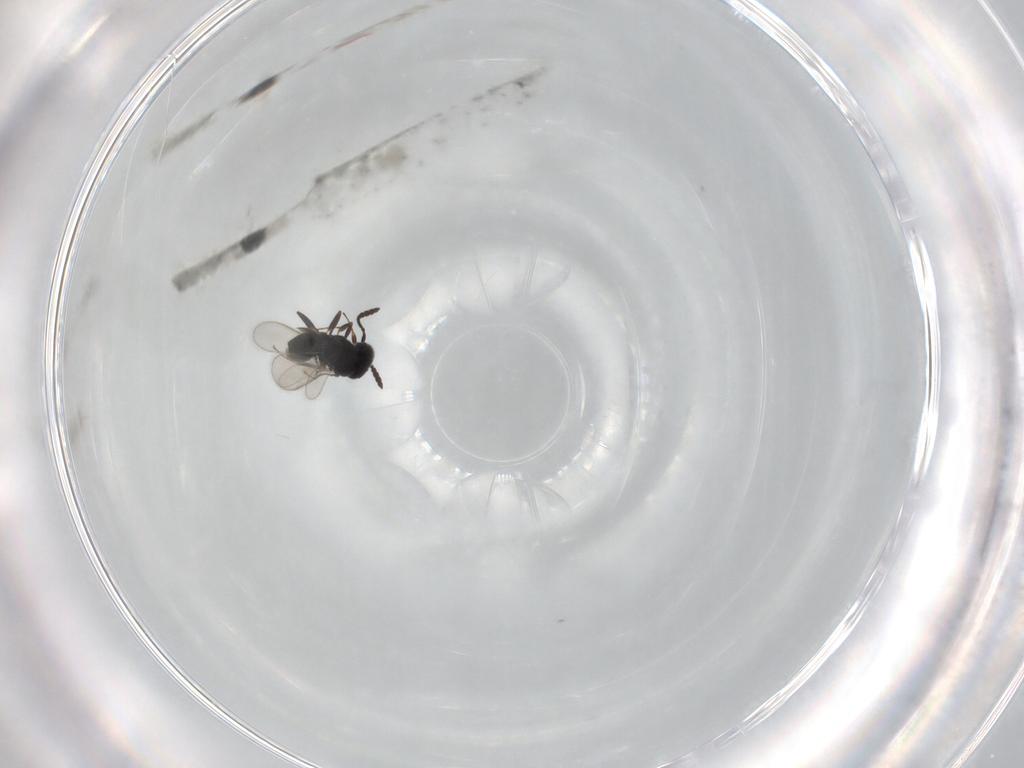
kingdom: Animalia
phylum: Arthropoda
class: Insecta
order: Hymenoptera
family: Scelionidae
